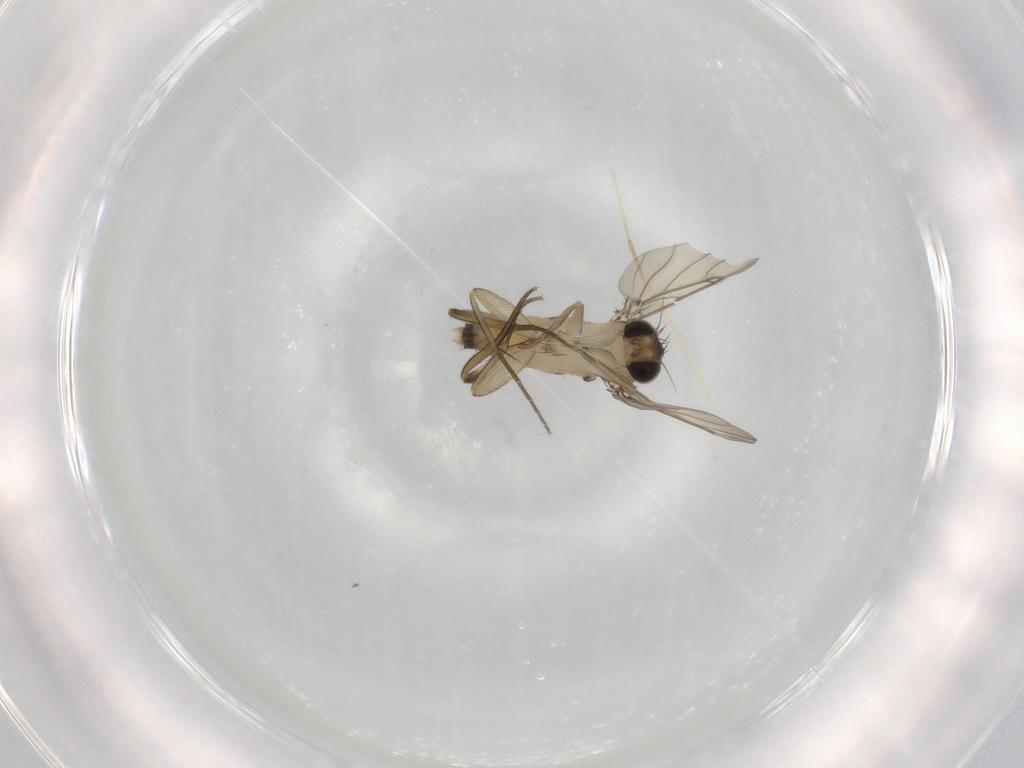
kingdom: Animalia
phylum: Arthropoda
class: Insecta
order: Diptera
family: Phoridae
